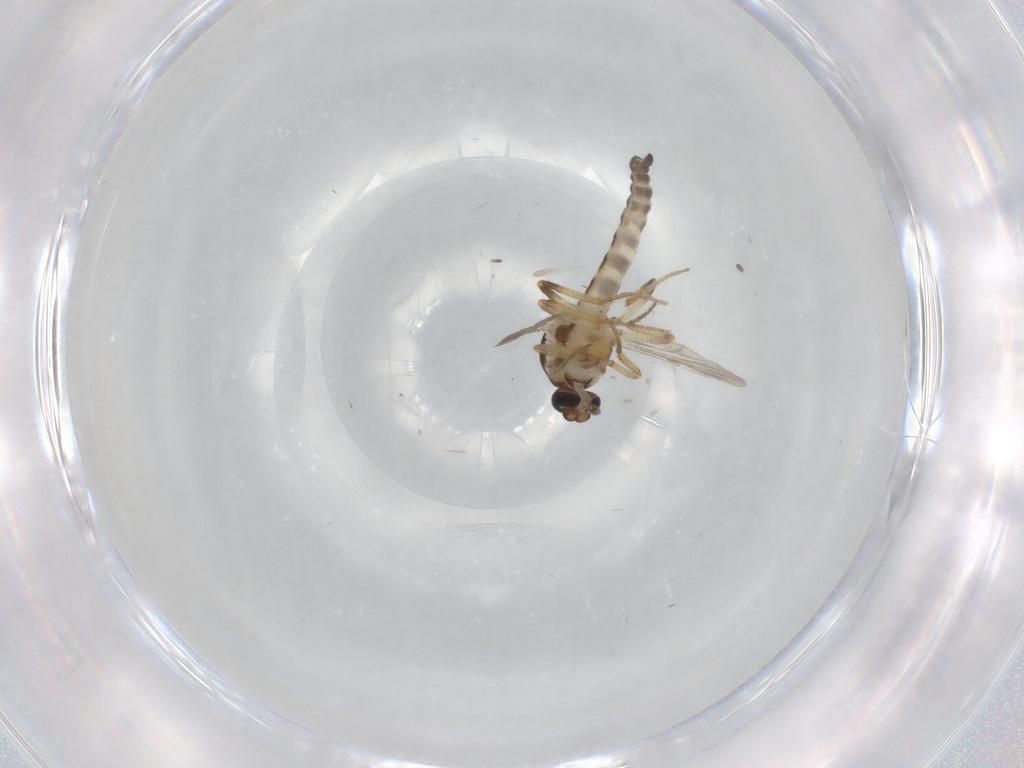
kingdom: Animalia
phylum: Arthropoda
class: Insecta
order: Diptera
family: Ceratopogonidae
